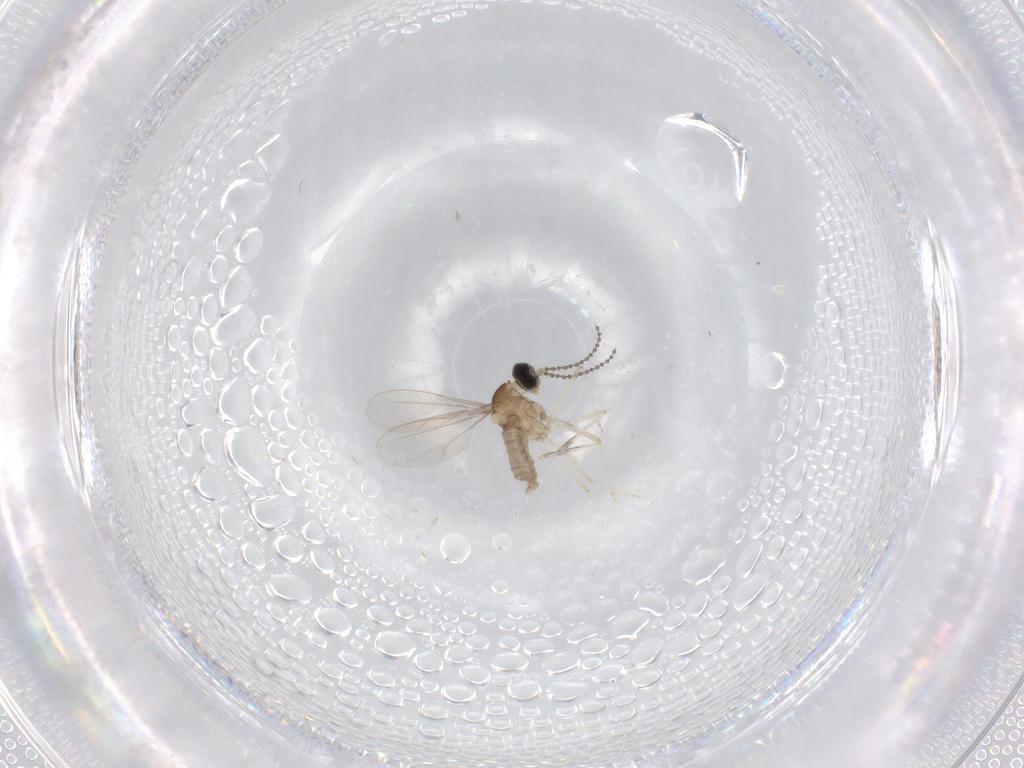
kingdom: Animalia
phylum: Arthropoda
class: Insecta
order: Diptera
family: Cecidomyiidae
